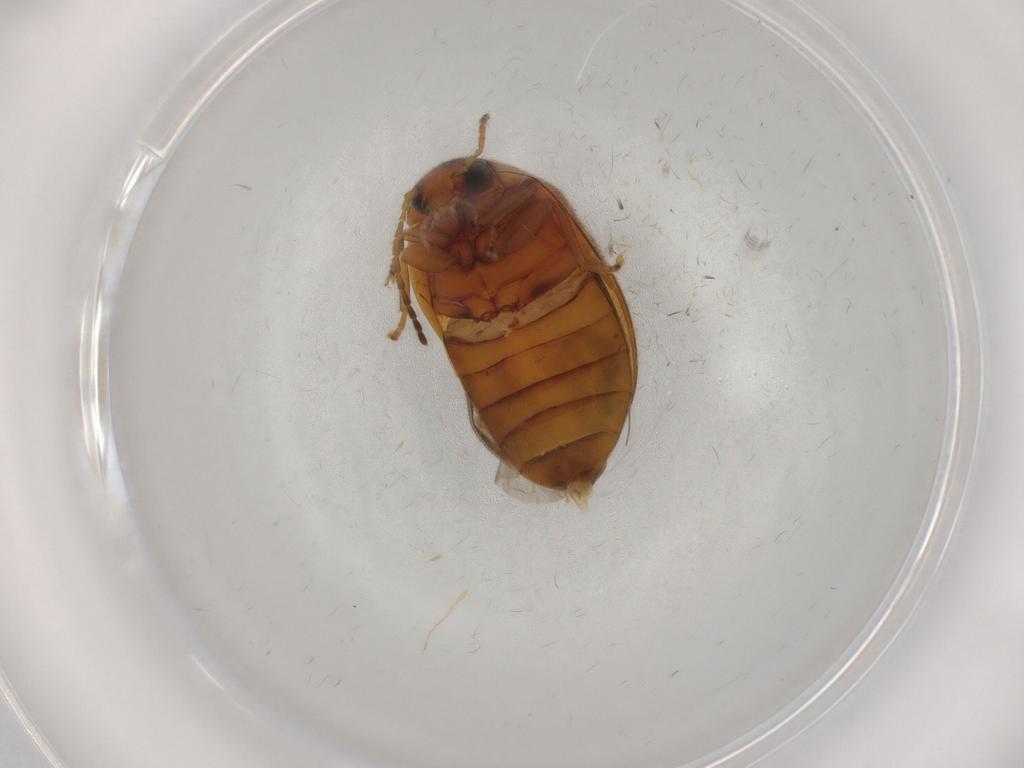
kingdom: Animalia
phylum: Arthropoda
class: Insecta
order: Coleoptera
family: Scirtidae
